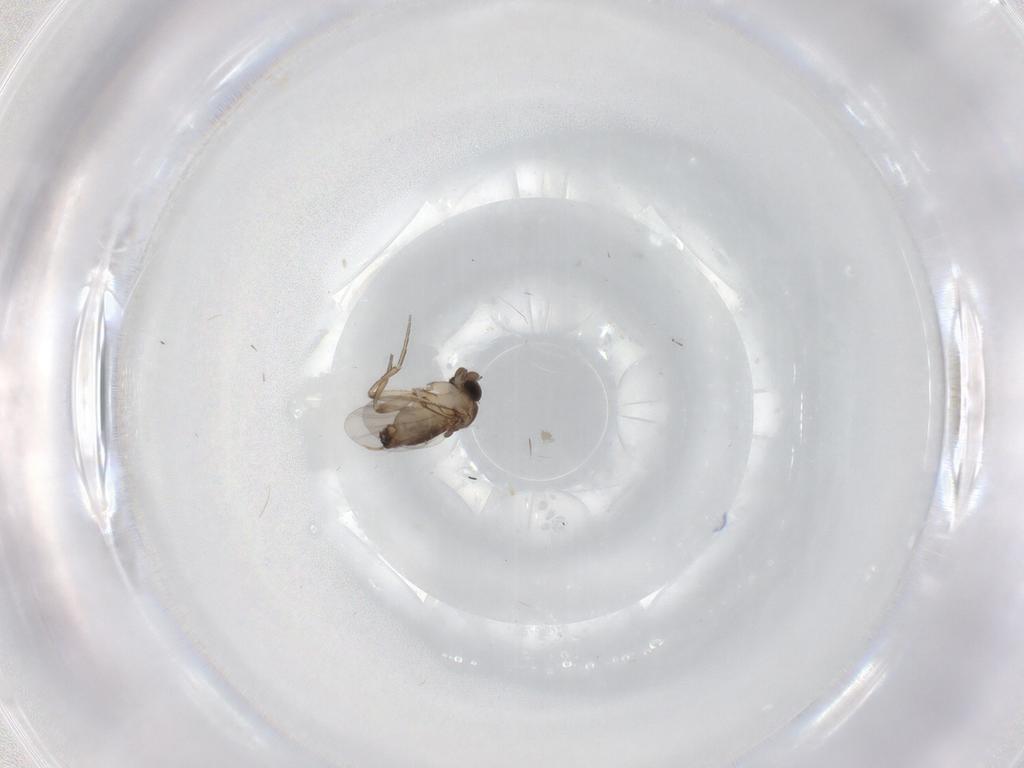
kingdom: Animalia
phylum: Arthropoda
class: Insecta
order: Diptera
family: Phoridae
